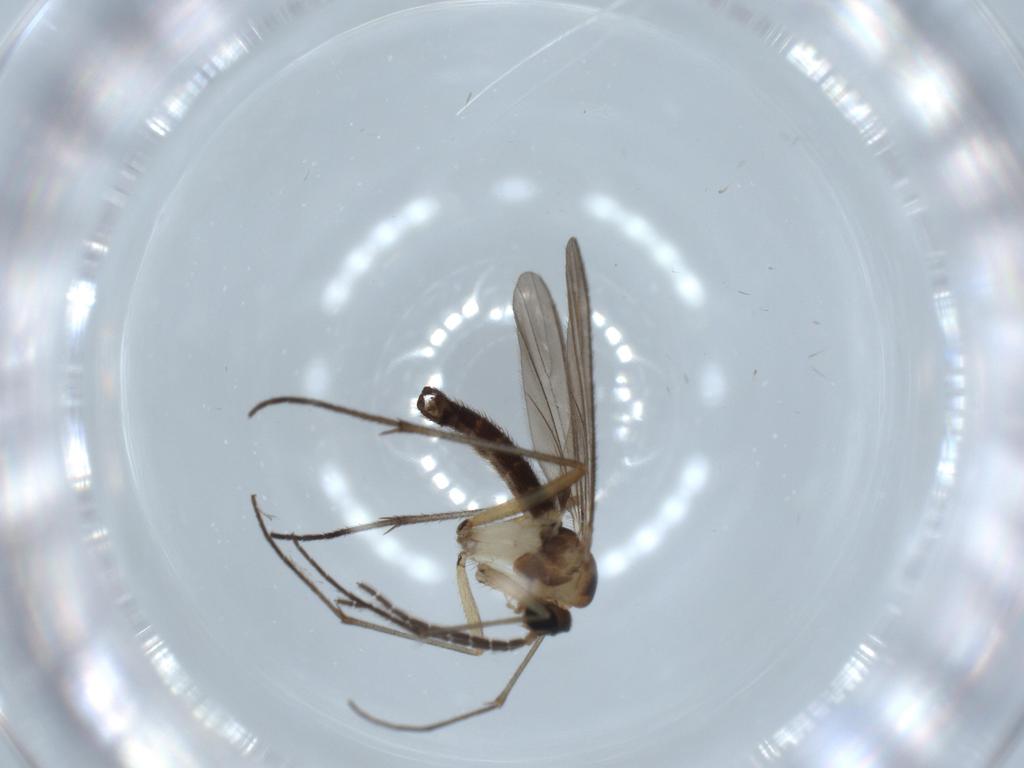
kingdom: Animalia
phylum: Arthropoda
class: Insecta
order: Diptera
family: Sciaridae
